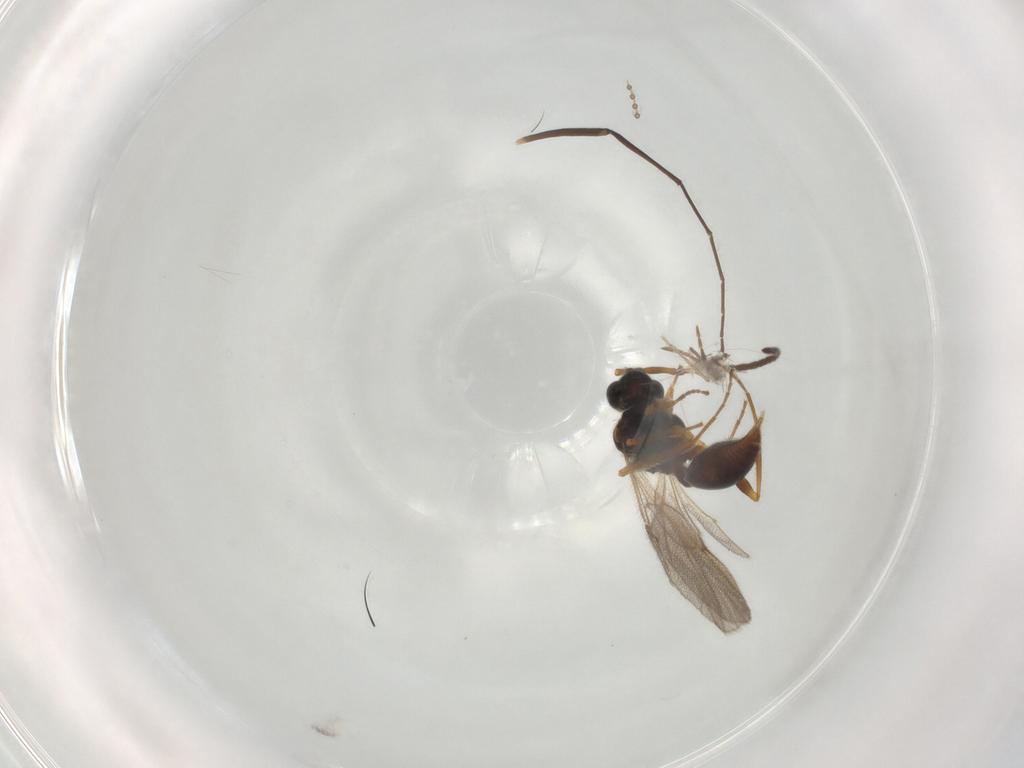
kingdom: Animalia
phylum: Arthropoda
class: Insecta
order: Hymenoptera
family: Diapriidae
